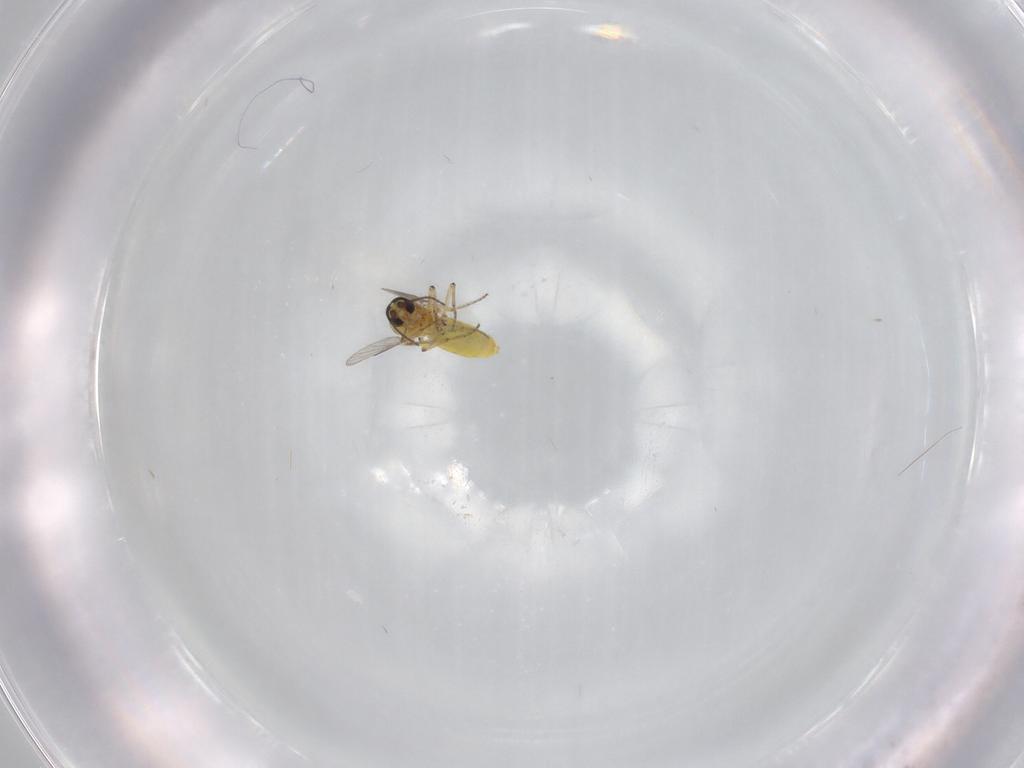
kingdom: Animalia
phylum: Arthropoda
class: Insecta
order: Diptera
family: Ceratopogonidae
